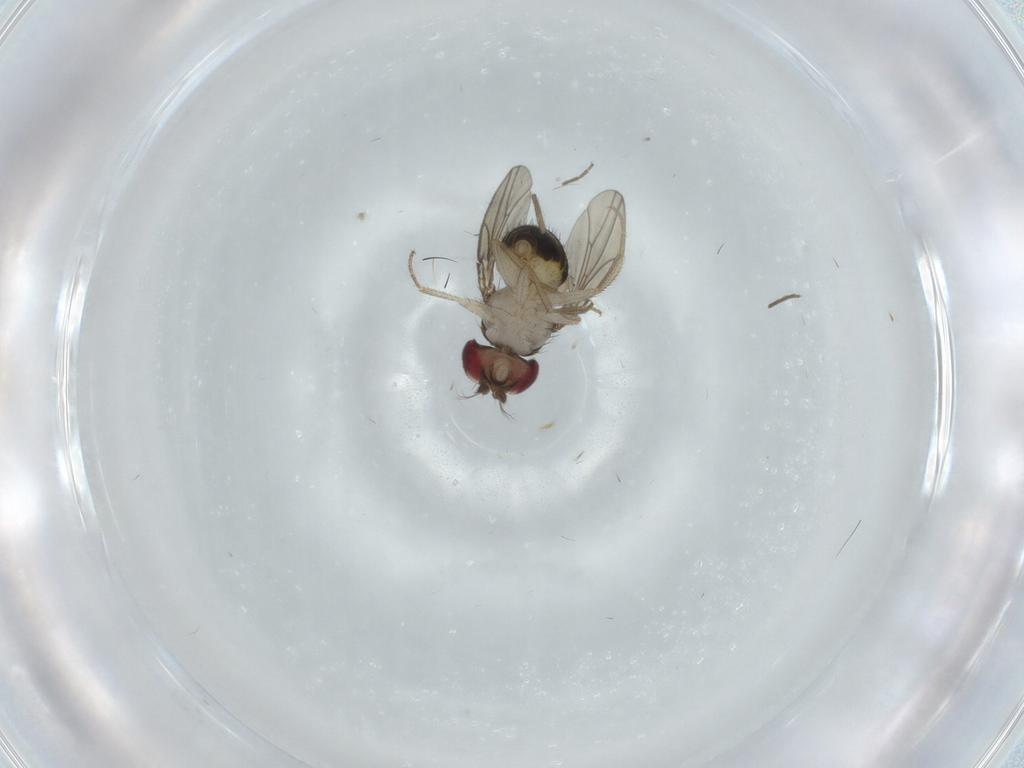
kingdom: Animalia
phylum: Arthropoda
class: Insecta
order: Diptera
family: Drosophilidae
